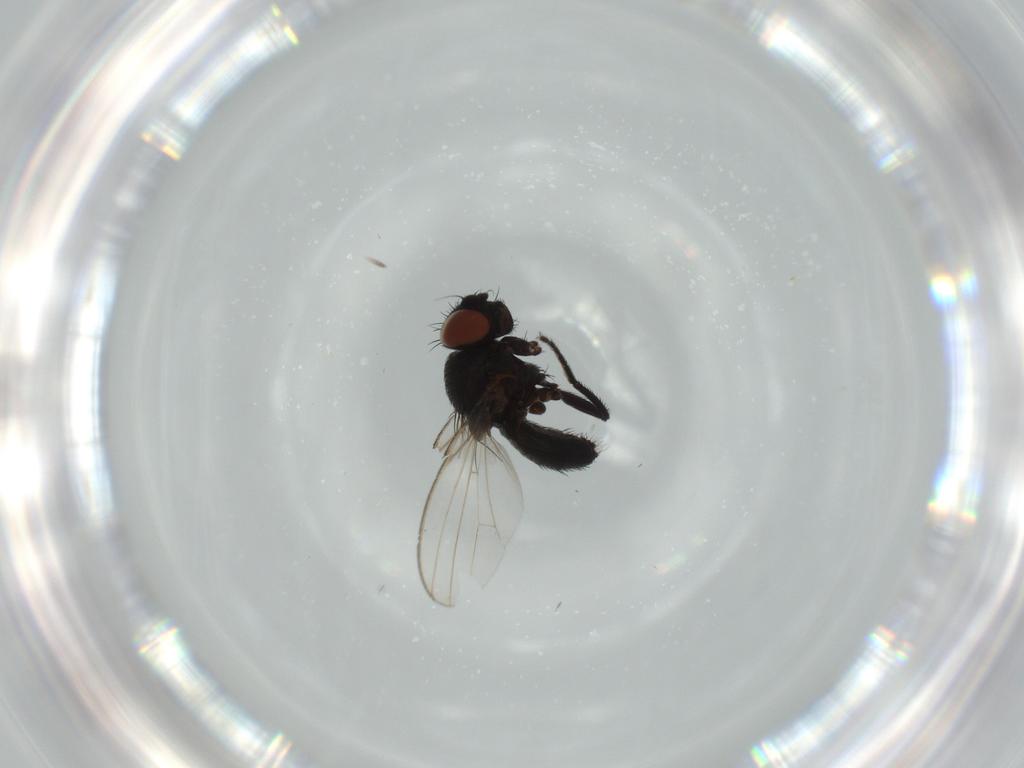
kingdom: Animalia
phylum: Arthropoda
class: Insecta
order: Diptera
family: Milichiidae
